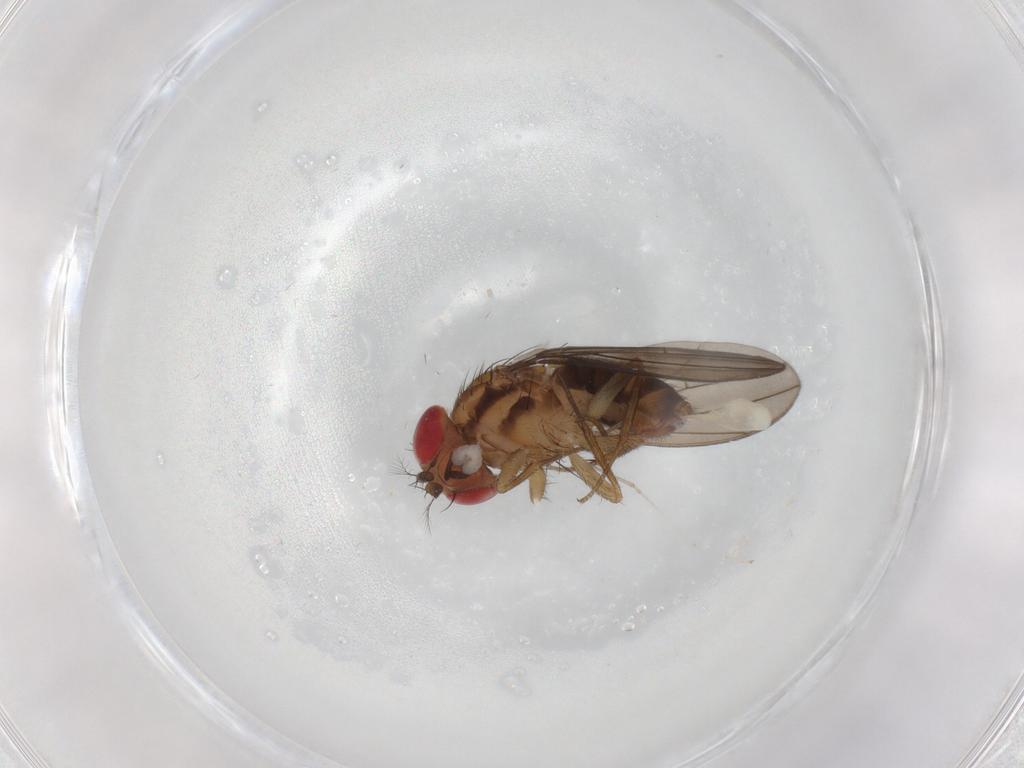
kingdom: Animalia
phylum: Arthropoda
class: Insecta
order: Diptera
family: Drosophilidae
